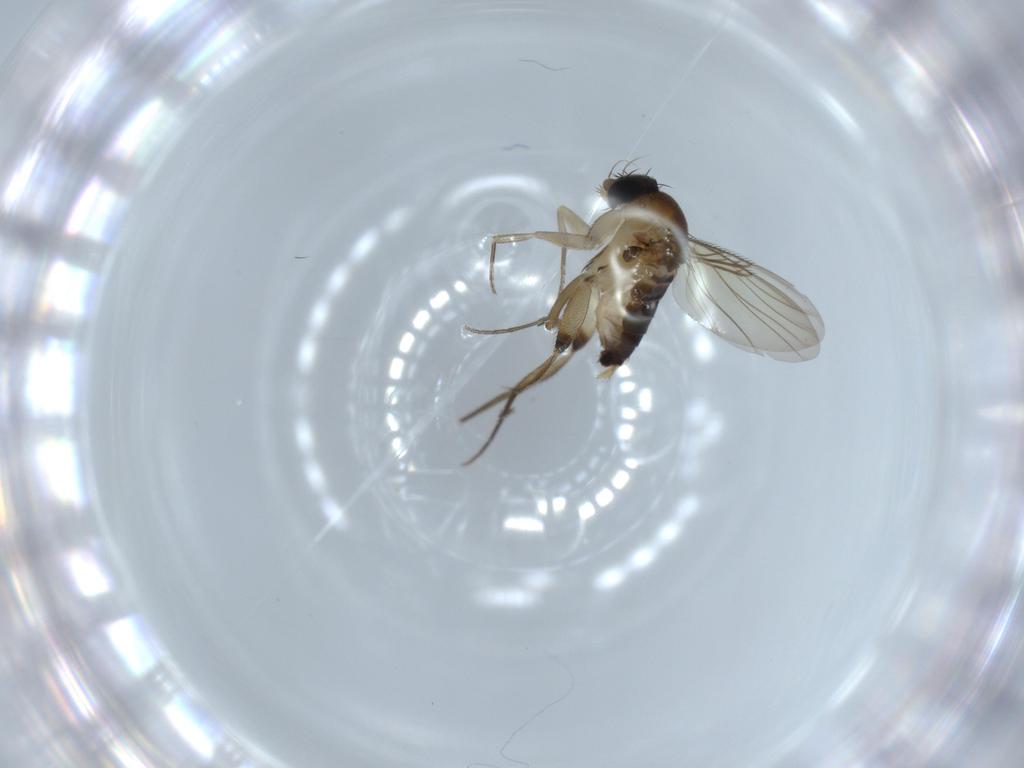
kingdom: Animalia
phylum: Arthropoda
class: Insecta
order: Diptera
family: Phoridae
